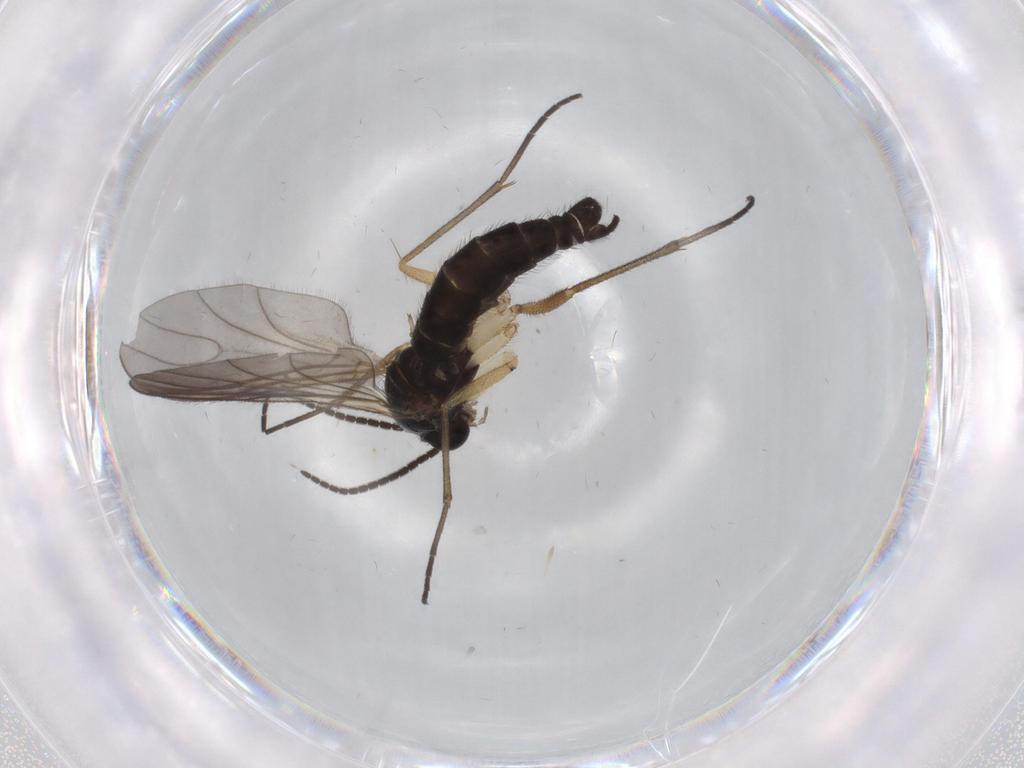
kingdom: Animalia
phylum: Arthropoda
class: Insecta
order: Diptera
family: Sciaridae
